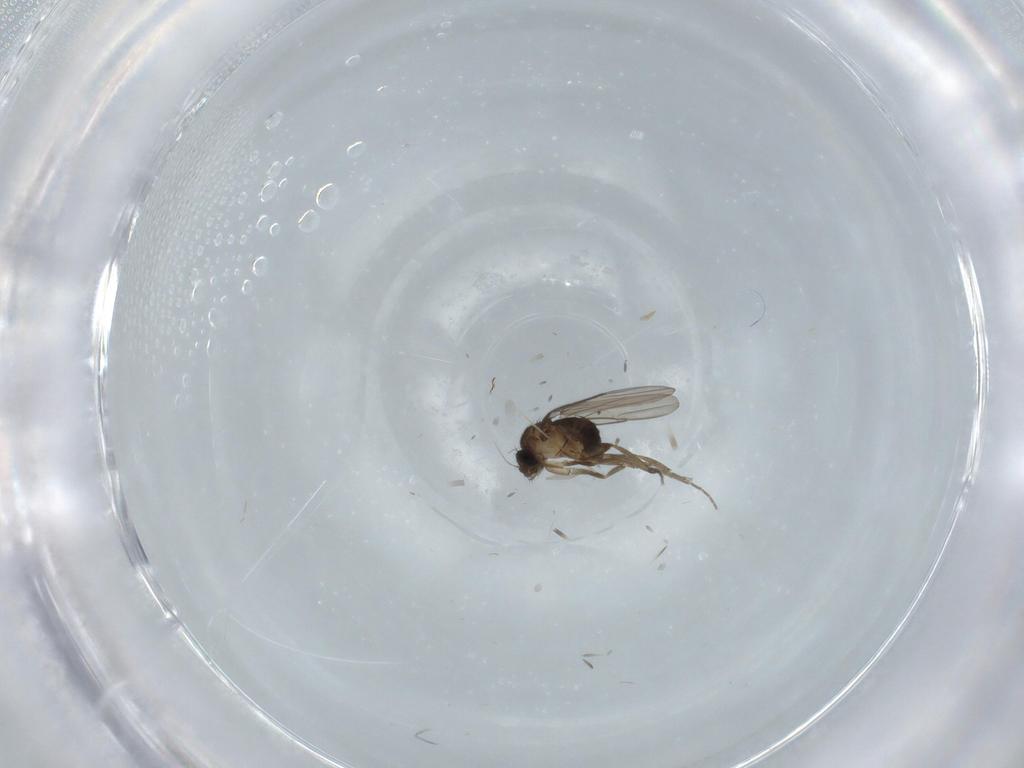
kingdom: Animalia
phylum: Arthropoda
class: Insecta
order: Diptera
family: Phoridae
